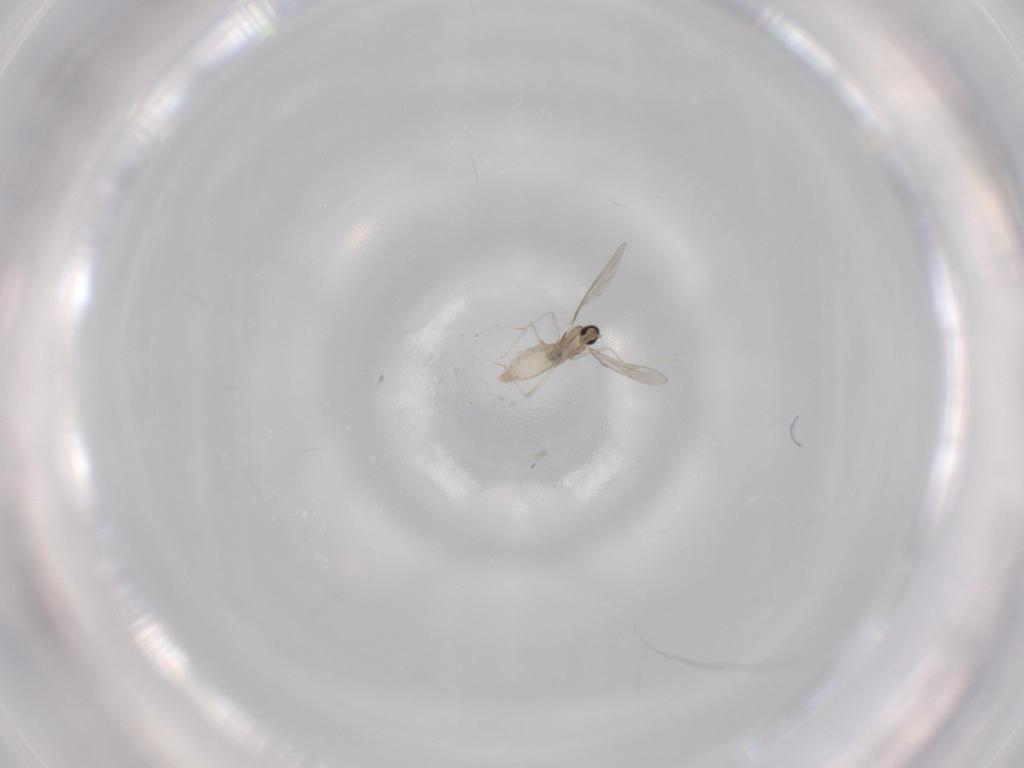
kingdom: Animalia
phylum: Arthropoda
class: Insecta
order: Diptera
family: Cecidomyiidae
